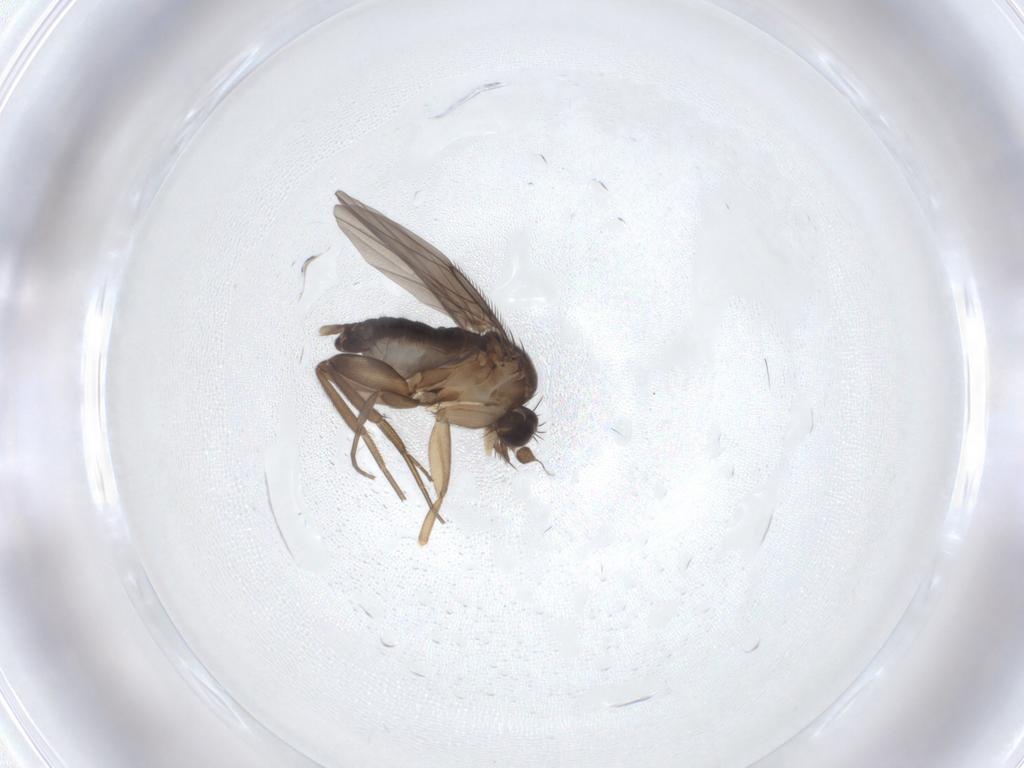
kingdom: Animalia
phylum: Arthropoda
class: Insecta
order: Diptera
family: Phoridae
